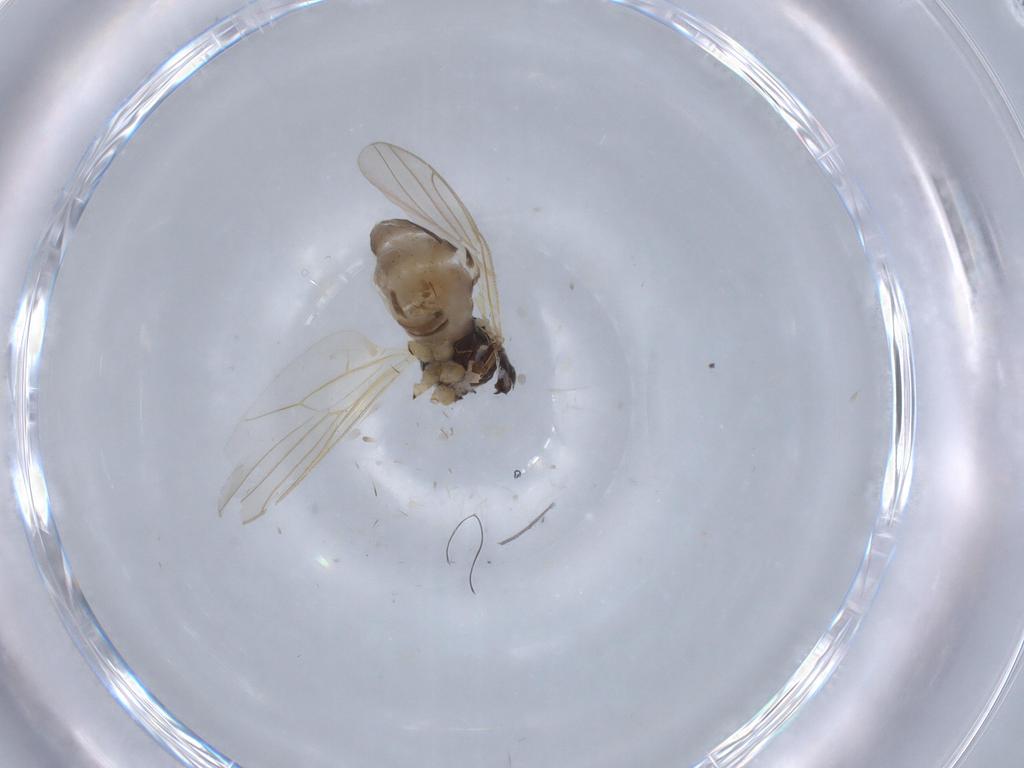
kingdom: Animalia
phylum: Arthropoda
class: Insecta
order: Diptera
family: Hybotidae
